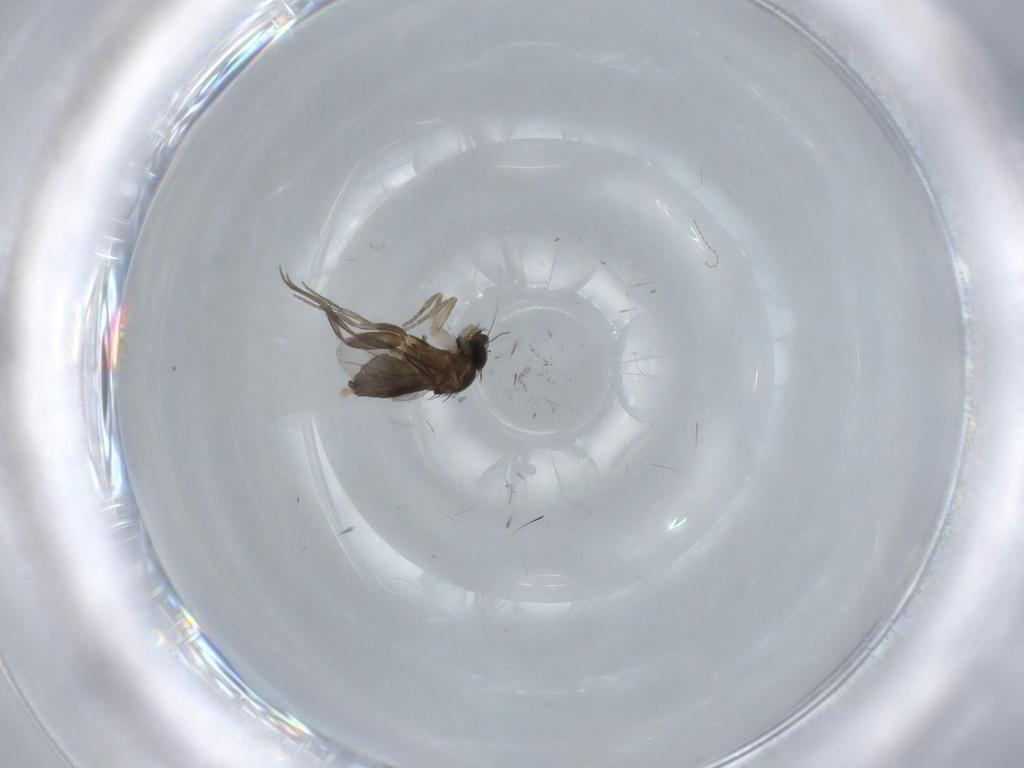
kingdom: Animalia
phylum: Arthropoda
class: Insecta
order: Diptera
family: Phoridae
